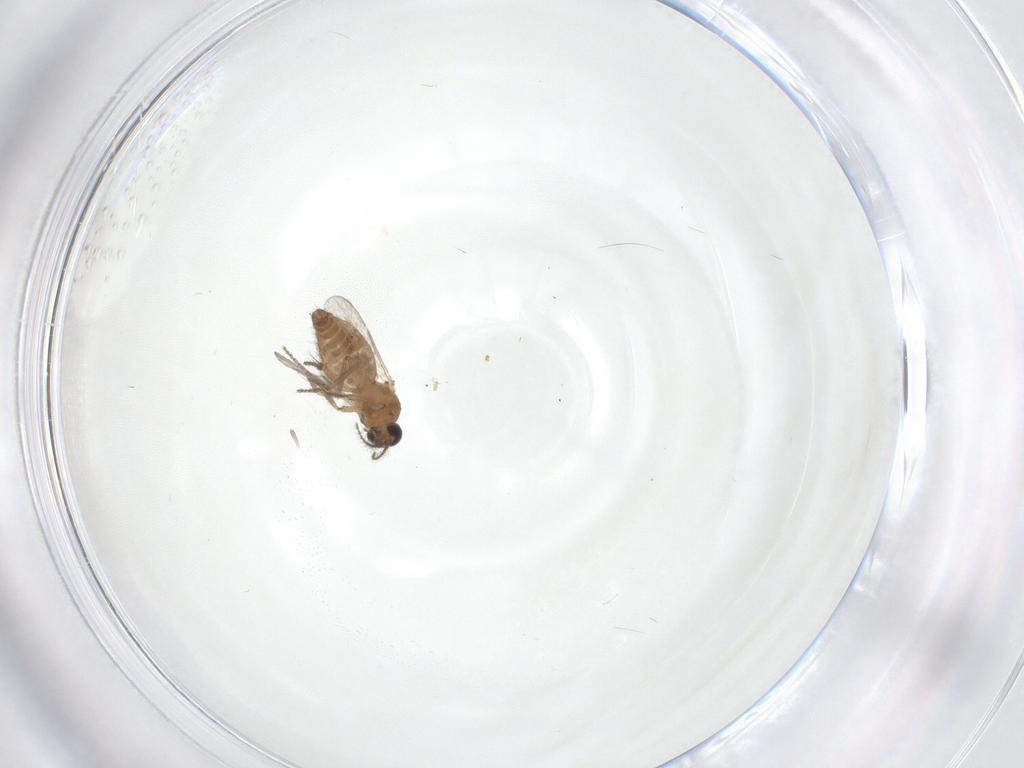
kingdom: Animalia
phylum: Arthropoda
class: Insecta
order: Diptera
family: Ceratopogonidae
